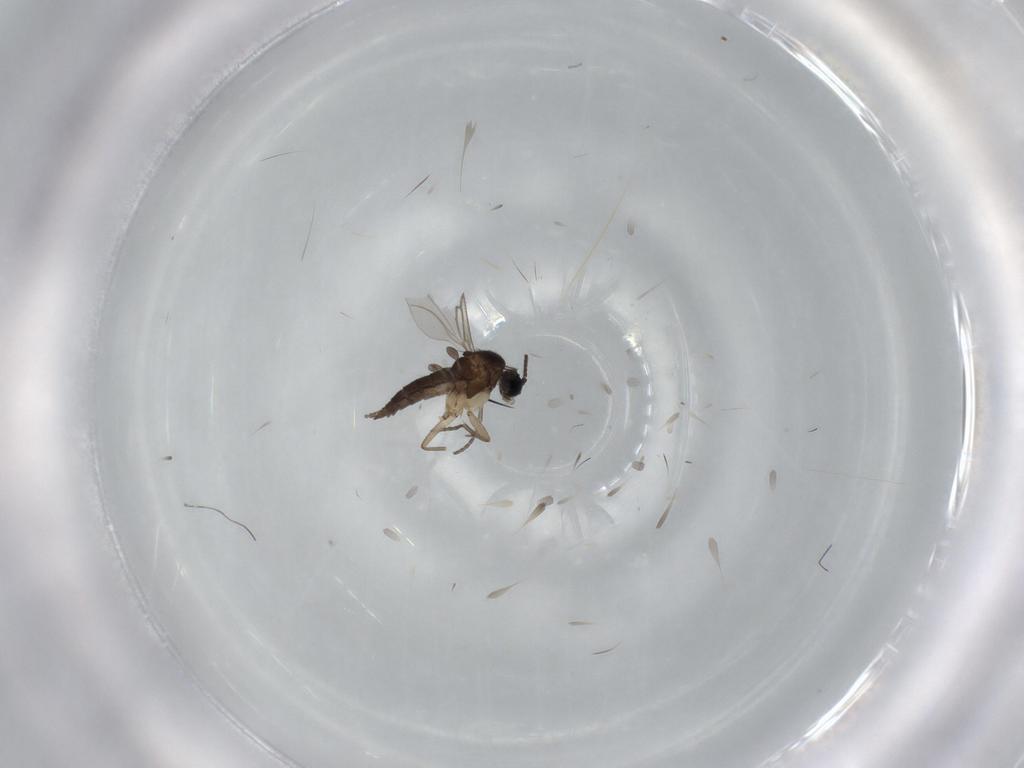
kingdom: Animalia
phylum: Arthropoda
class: Insecta
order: Diptera
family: Sciaridae
